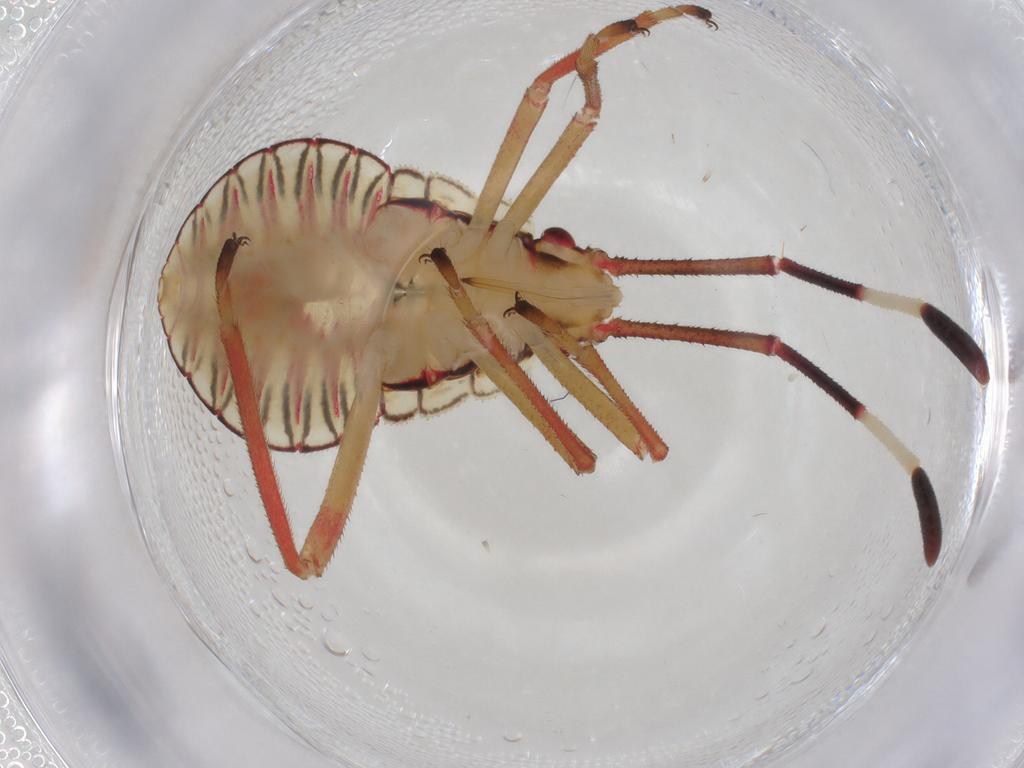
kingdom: Animalia
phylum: Arthropoda
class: Insecta
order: Hemiptera
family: Coreidae
